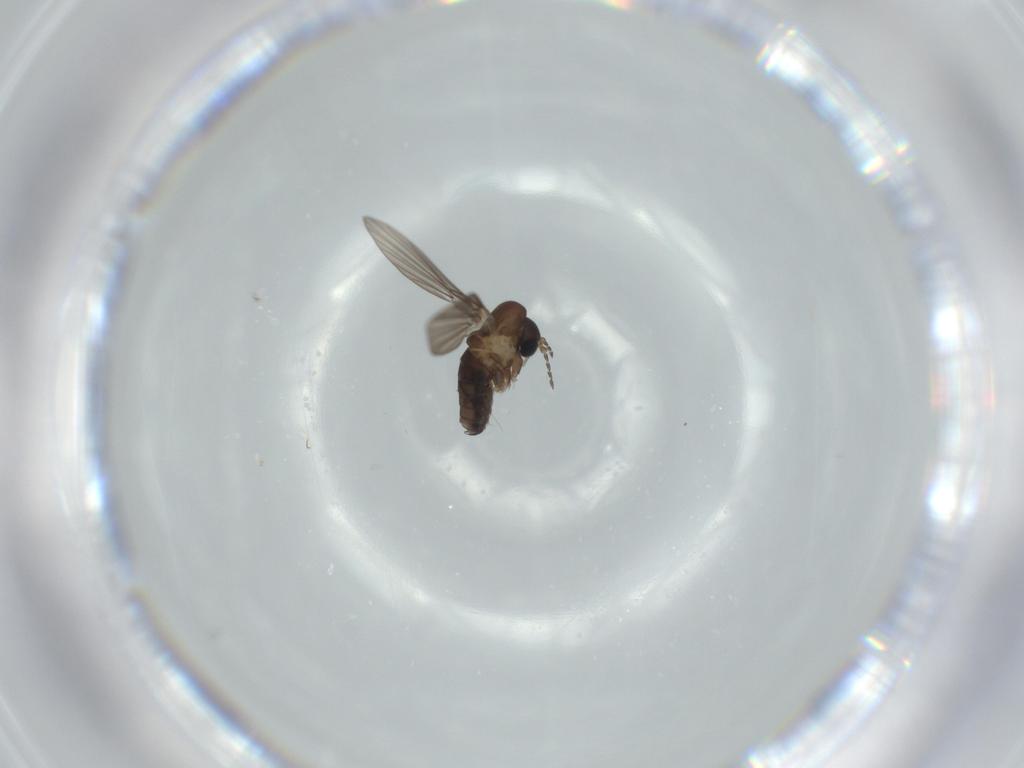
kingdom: Animalia
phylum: Arthropoda
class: Insecta
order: Diptera
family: Psychodidae
